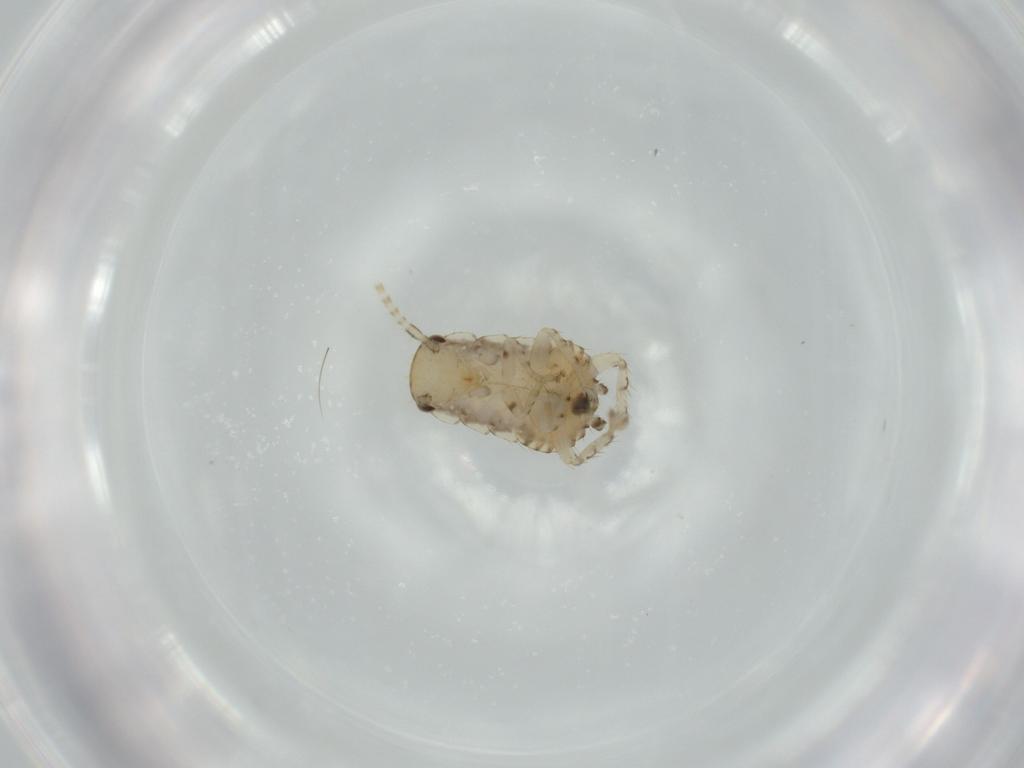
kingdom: Animalia
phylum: Arthropoda
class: Insecta
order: Blattodea
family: Ectobiidae
